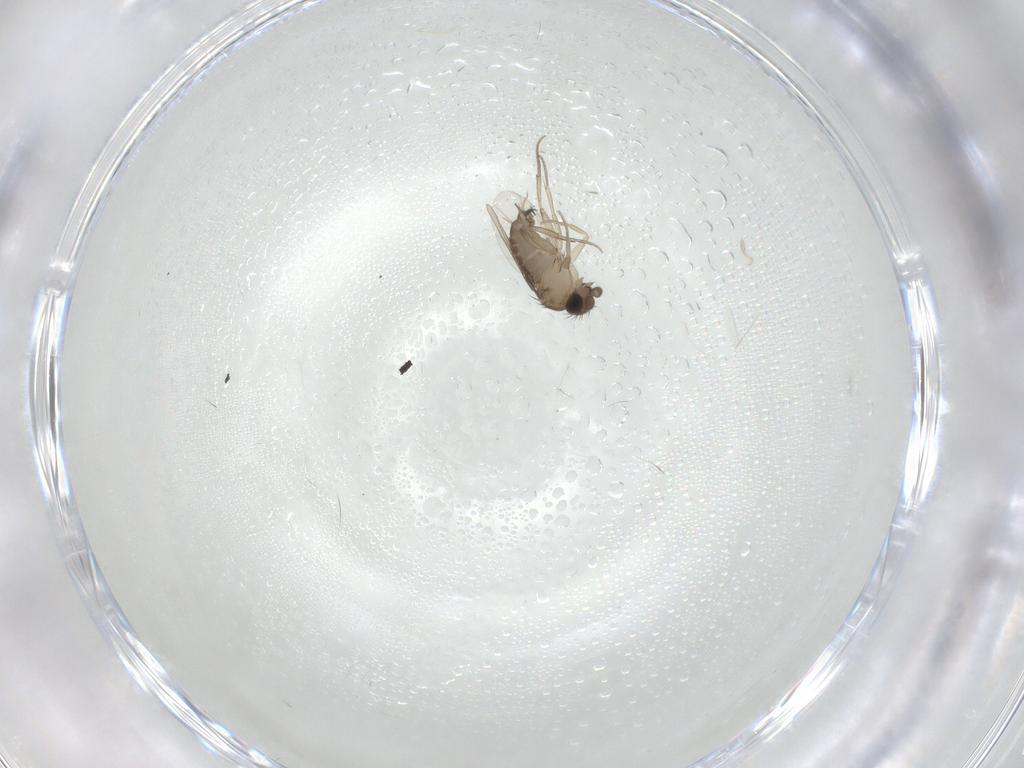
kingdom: Animalia
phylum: Arthropoda
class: Insecta
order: Diptera
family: Phoridae
